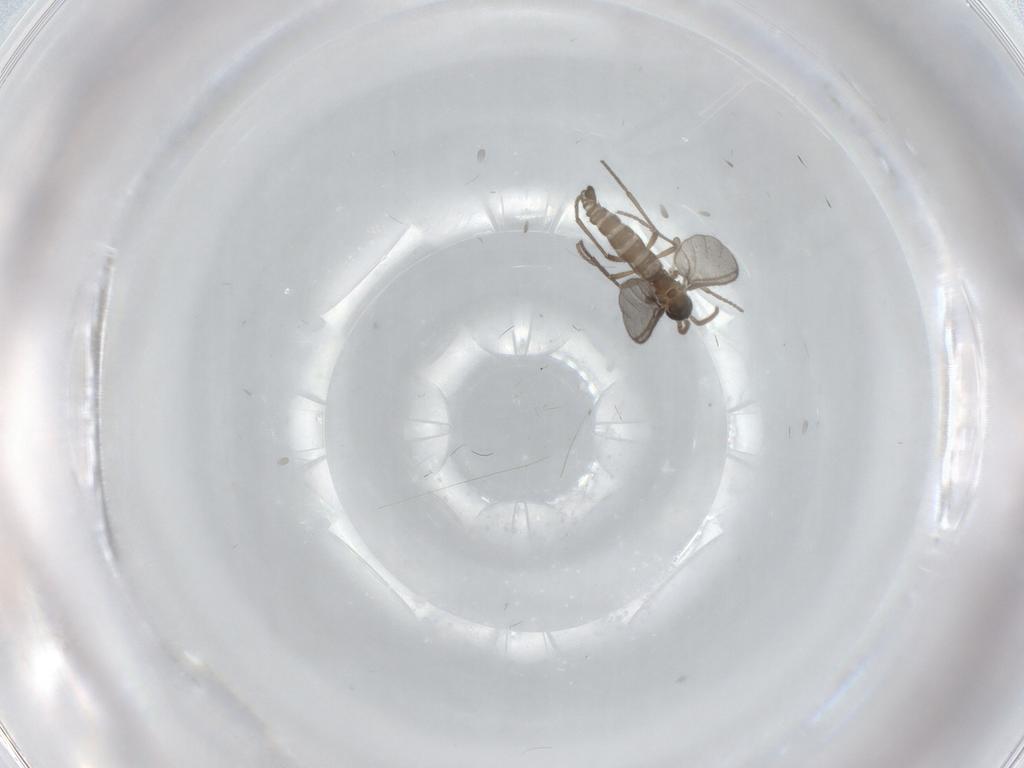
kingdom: Animalia
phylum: Arthropoda
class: Insecta
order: Diptera
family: Sciaridae
